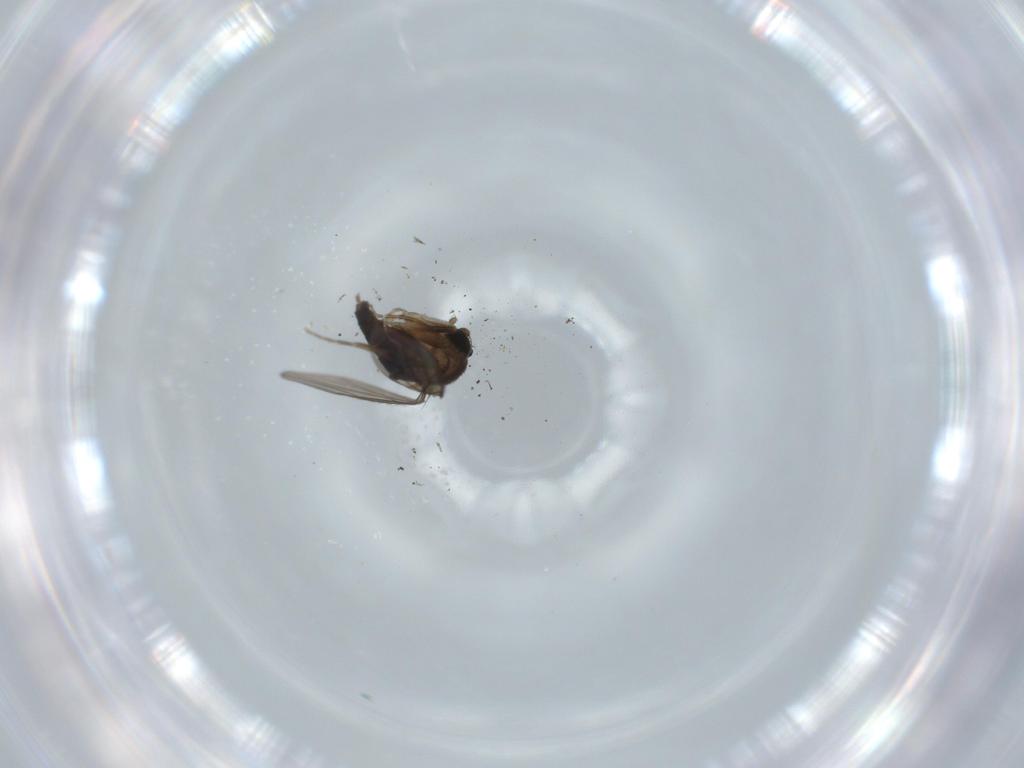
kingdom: Animalia
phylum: Arthropoda
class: Insecta
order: Diptera
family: Phoridae
